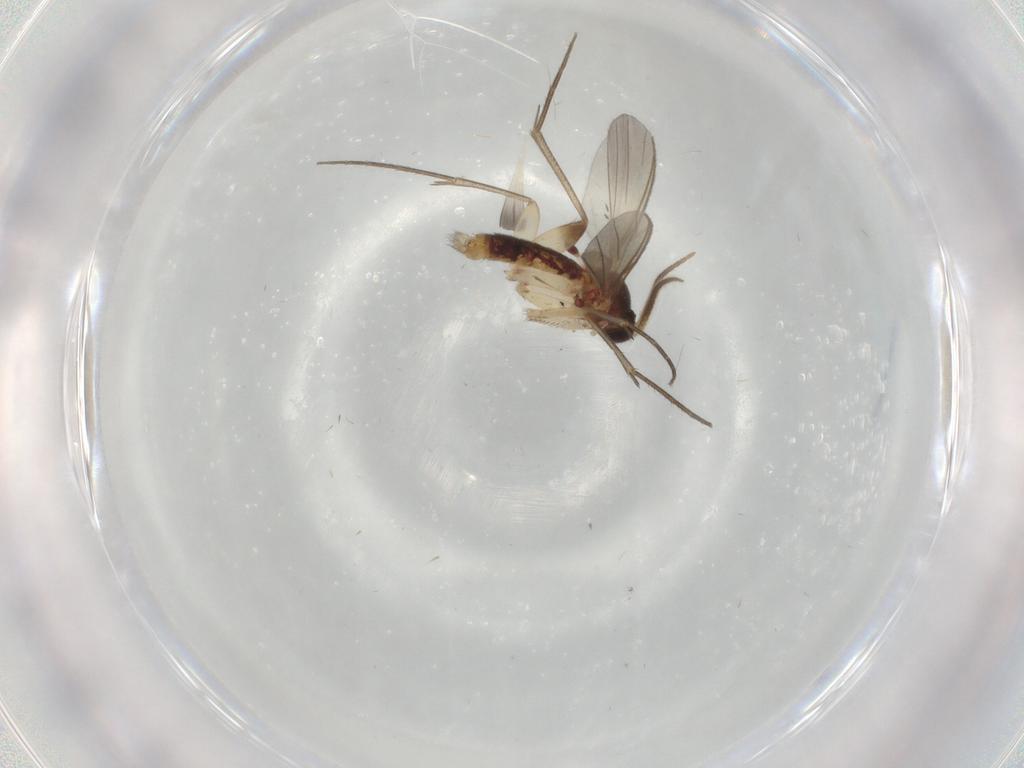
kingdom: Animalia
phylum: Arthropoda
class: Insecta
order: Diptera
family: Mycetophilidae
